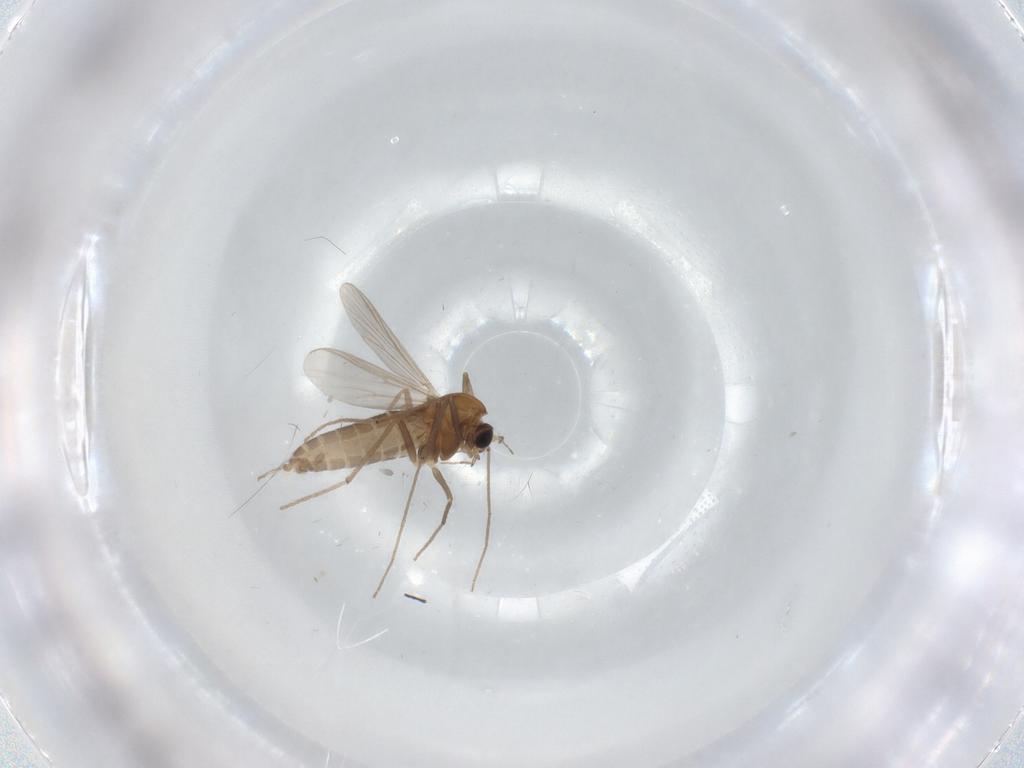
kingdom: Animalia
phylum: Arthropoda
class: Insecta
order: Diptera
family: Chironomidae
